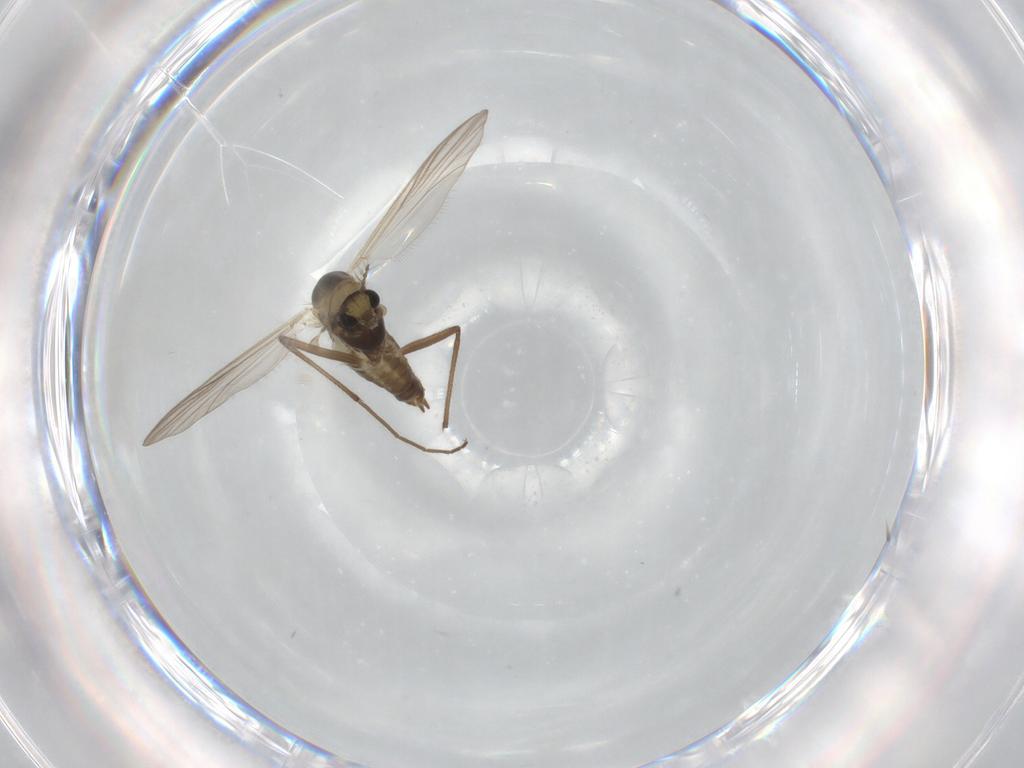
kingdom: Animalia
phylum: Arthropoda
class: Insecta
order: Diptera
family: Chironomidae
